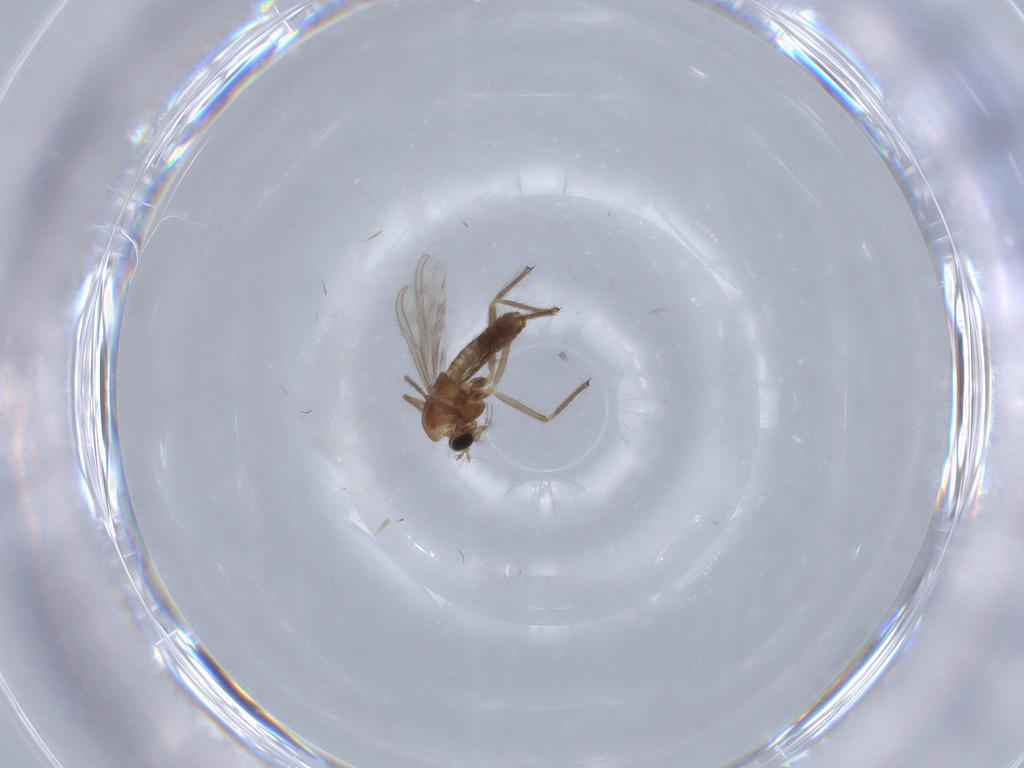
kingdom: Animalia
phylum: Arthropoda
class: Insecta
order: Diptera
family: Chironomidae
